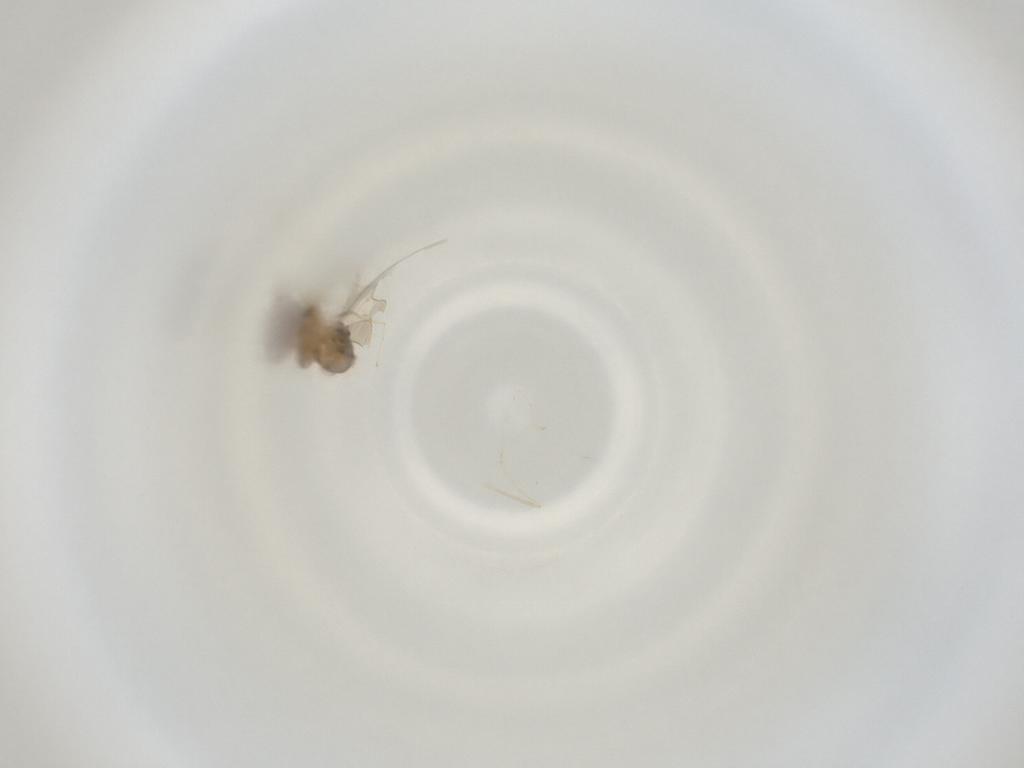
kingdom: Animalia
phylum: Arthropoda
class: Insecta
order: Diptera
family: Cecidomyiidae
